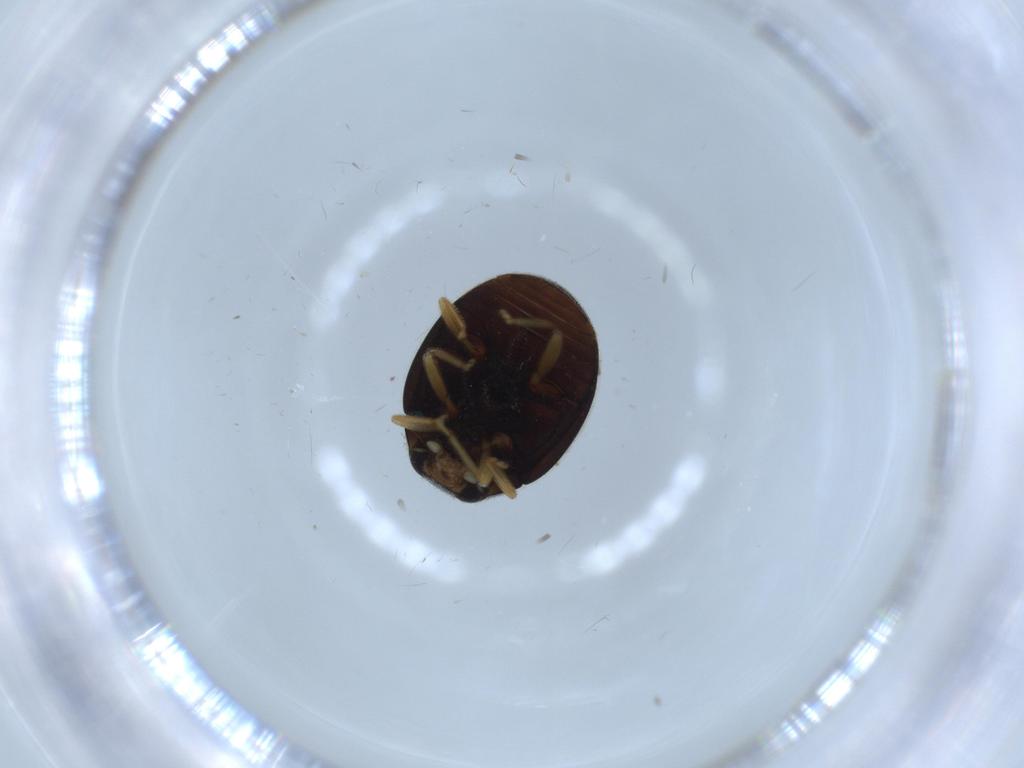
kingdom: Animalia
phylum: Arthropoda
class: Insecta
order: Coleoptera
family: Coccinellidae
